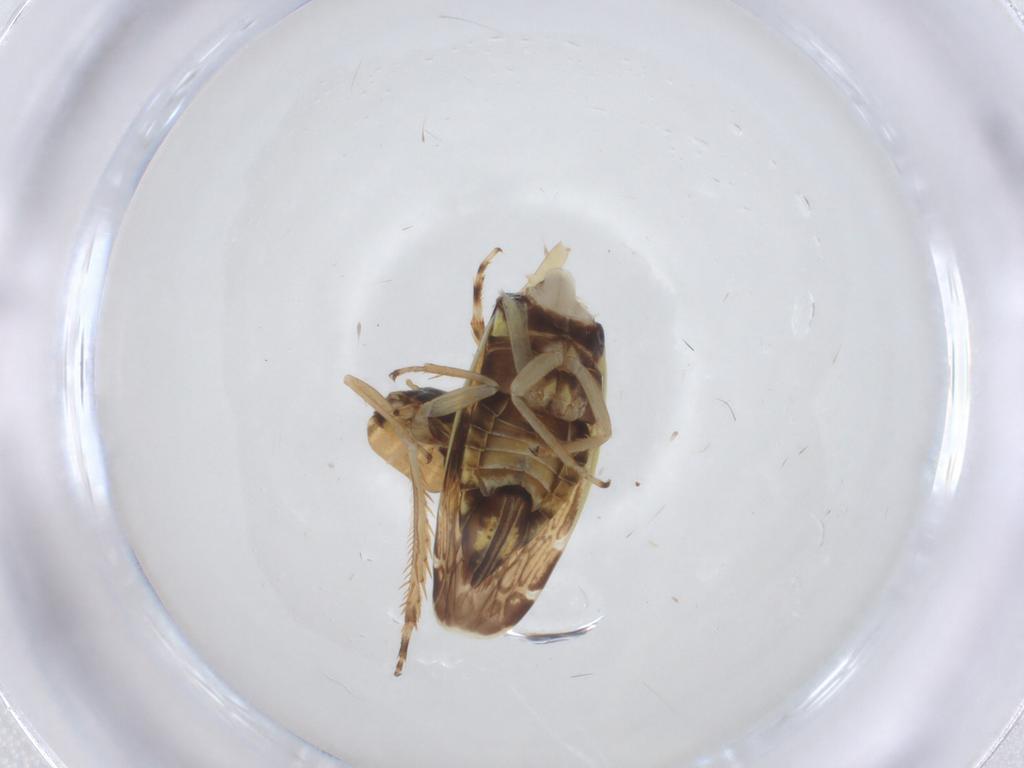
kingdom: Animalia
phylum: Arthropoda
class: Insecta
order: Hemiptera
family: Cicadellidae
